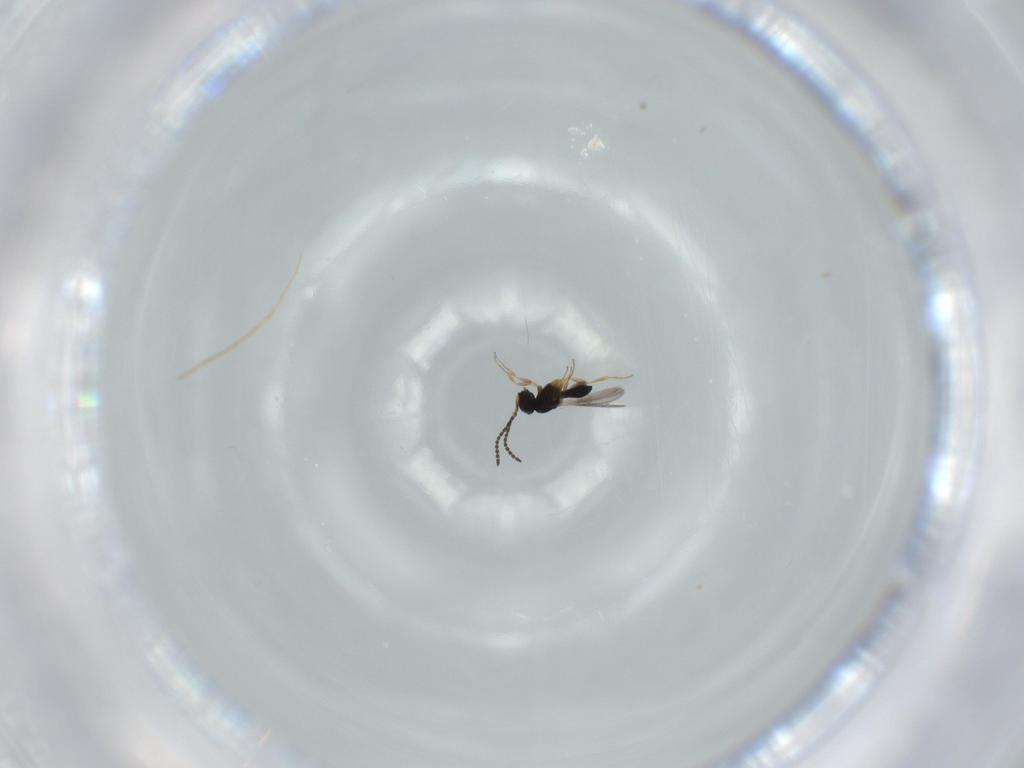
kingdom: Animalia
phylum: Arthropoda
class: Insecta
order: Hymenoptera
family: Scelionidae
